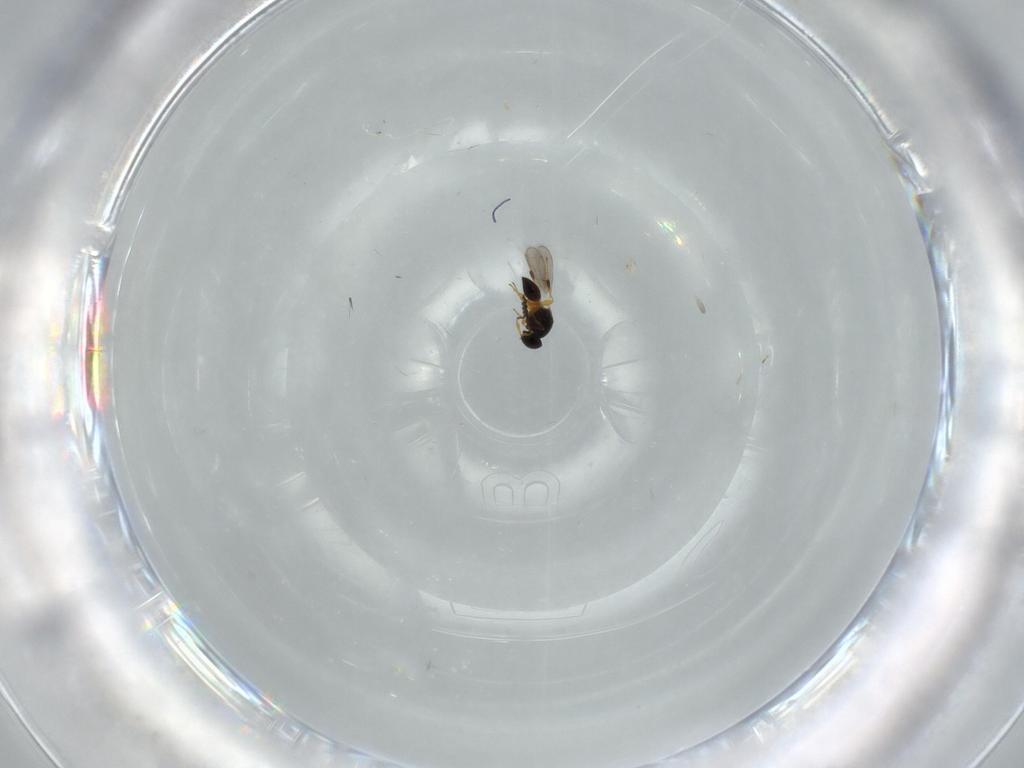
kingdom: Animalia
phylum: Arthropoda
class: Insecta
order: Hymenoptera
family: Platygastridae
